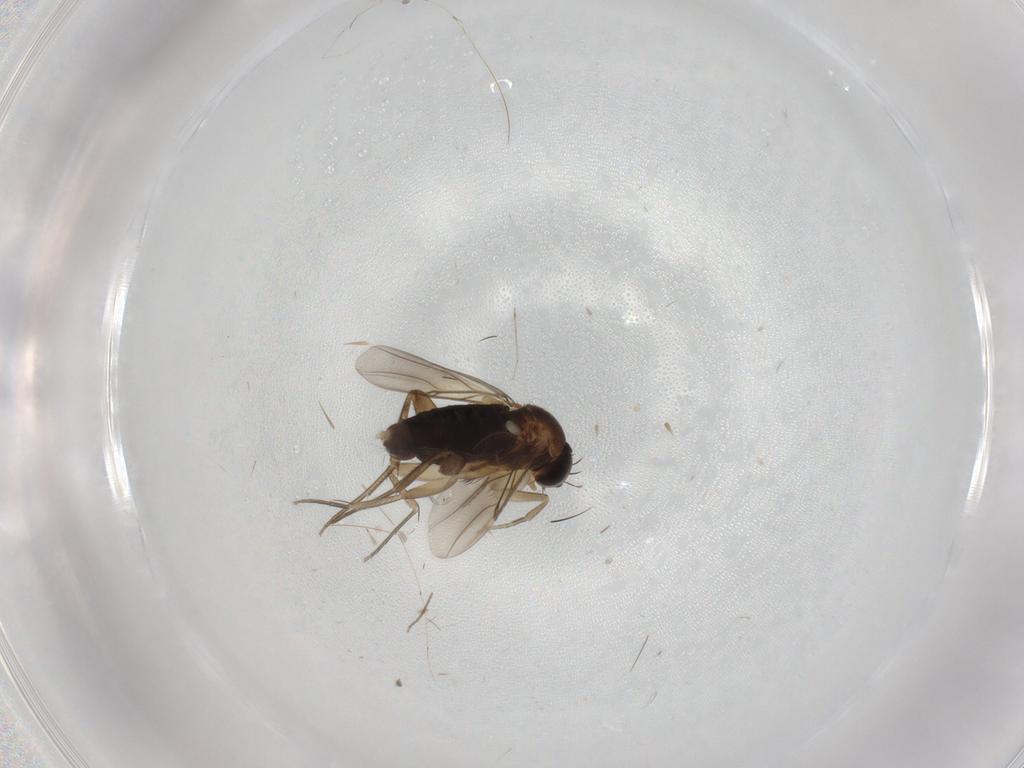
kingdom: Animalia
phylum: Arthropoda
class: Insecta
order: Diptera
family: Phoridae
